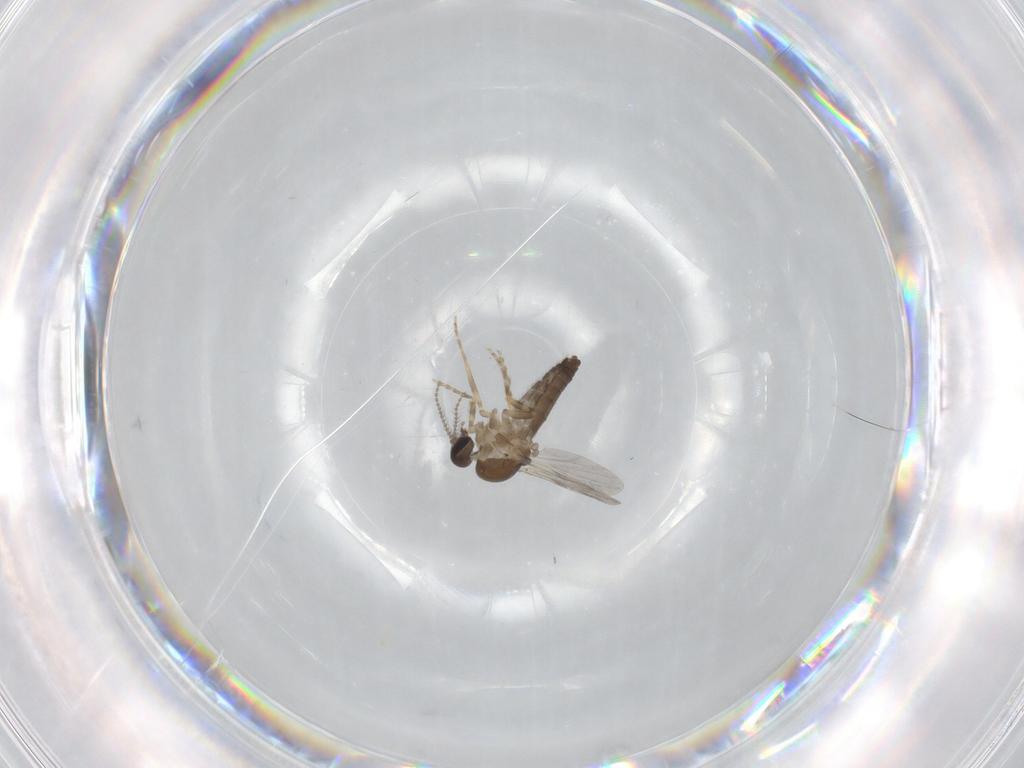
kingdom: Animalia
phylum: Arthropoda
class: Insecta
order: Diptera
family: Ceratopogonidae
